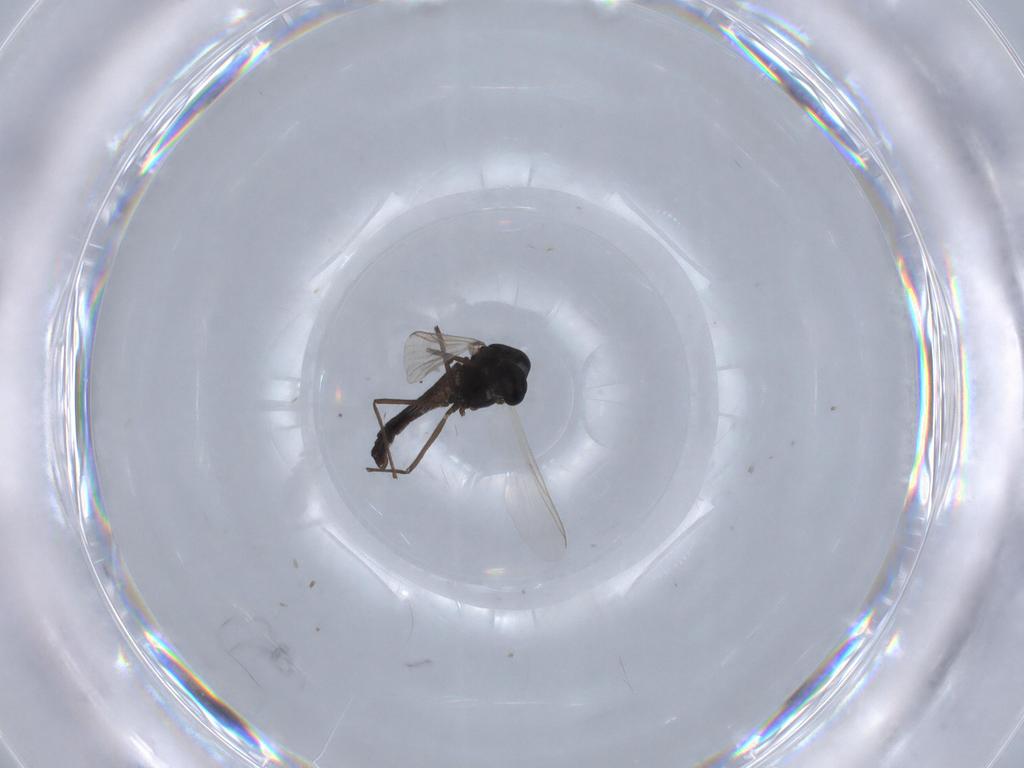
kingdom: Animalia
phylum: Arthropoda
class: Insecta
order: Diptera
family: Chironomidae
